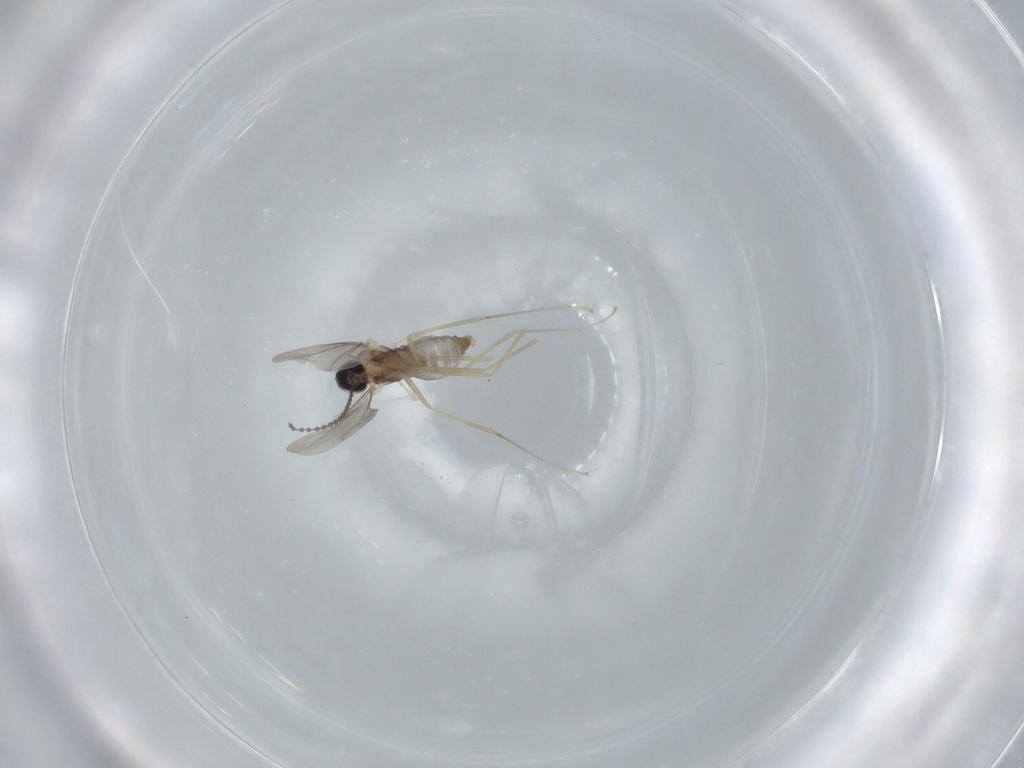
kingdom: Animalia
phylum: Arthropoda
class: Insecta
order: Diptera
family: Cecidomyiidae
